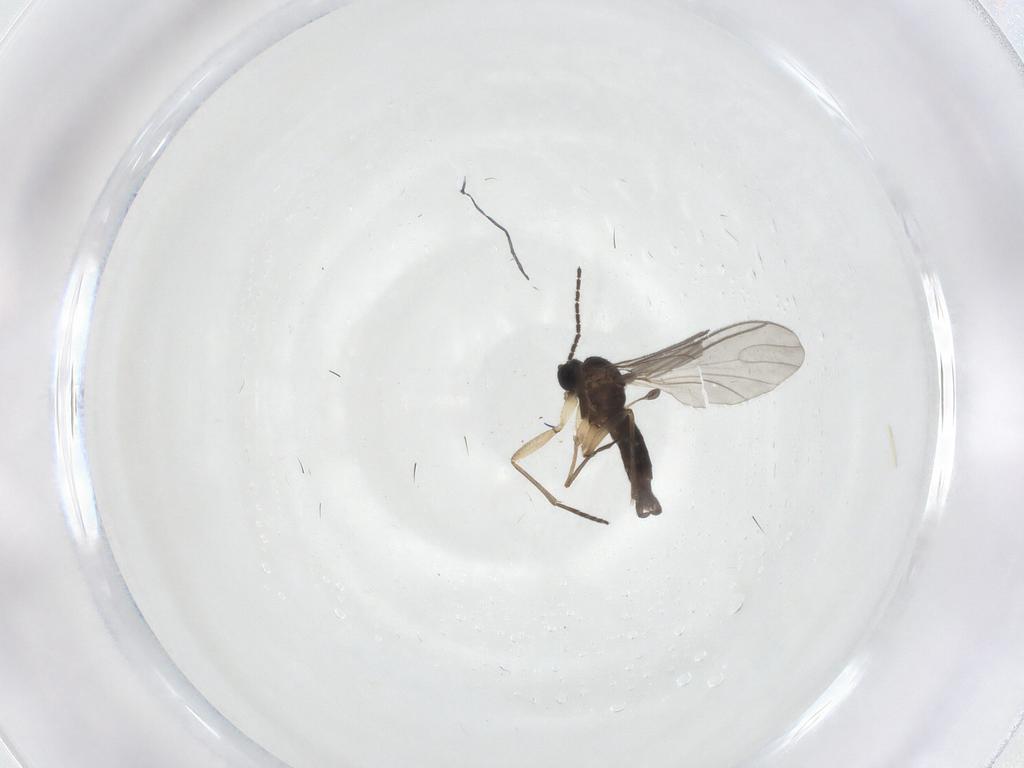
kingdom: Animalia
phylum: Arthropoda
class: Insecta
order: Diptera
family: Sciaridae
